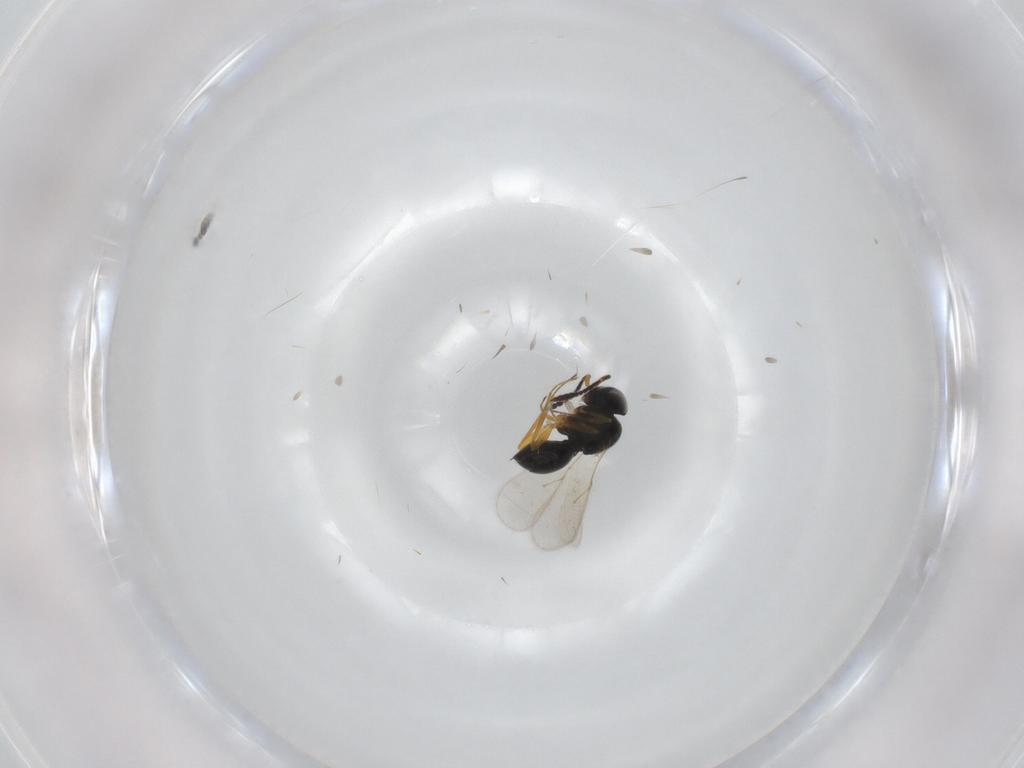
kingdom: Animalia
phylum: Arthropoda
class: Insecta
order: Hymenoptera
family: Scelionidae
